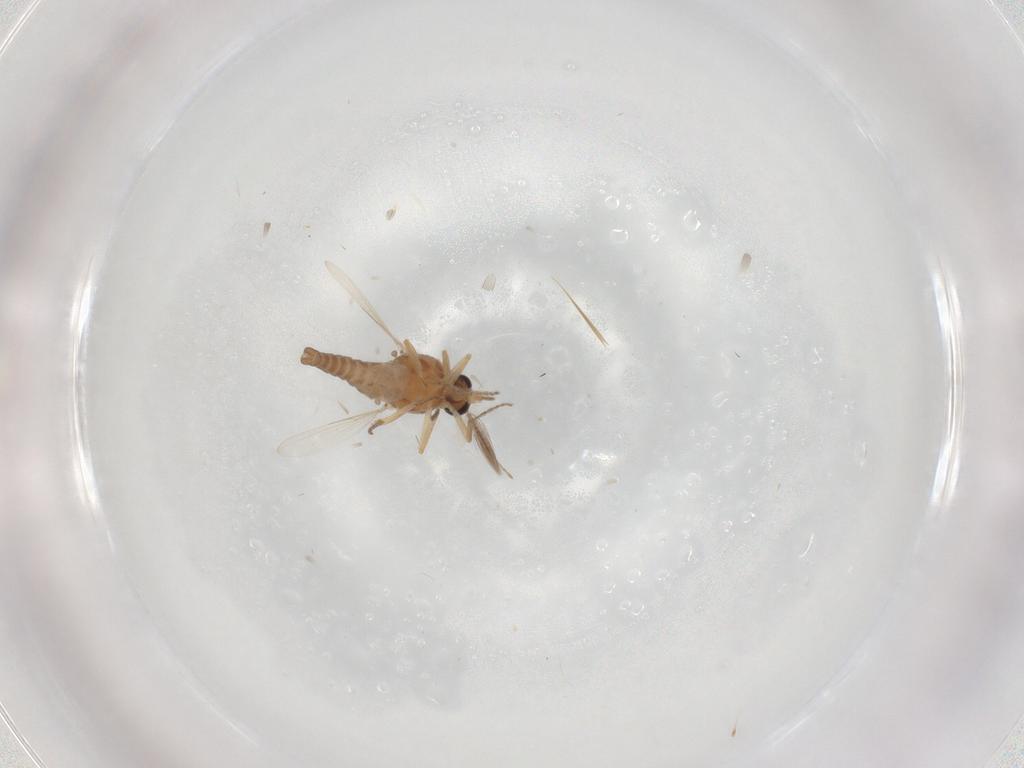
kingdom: Animalia
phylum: Arthropoda
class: Insecta
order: Diptera
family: Cecidomyiidae
